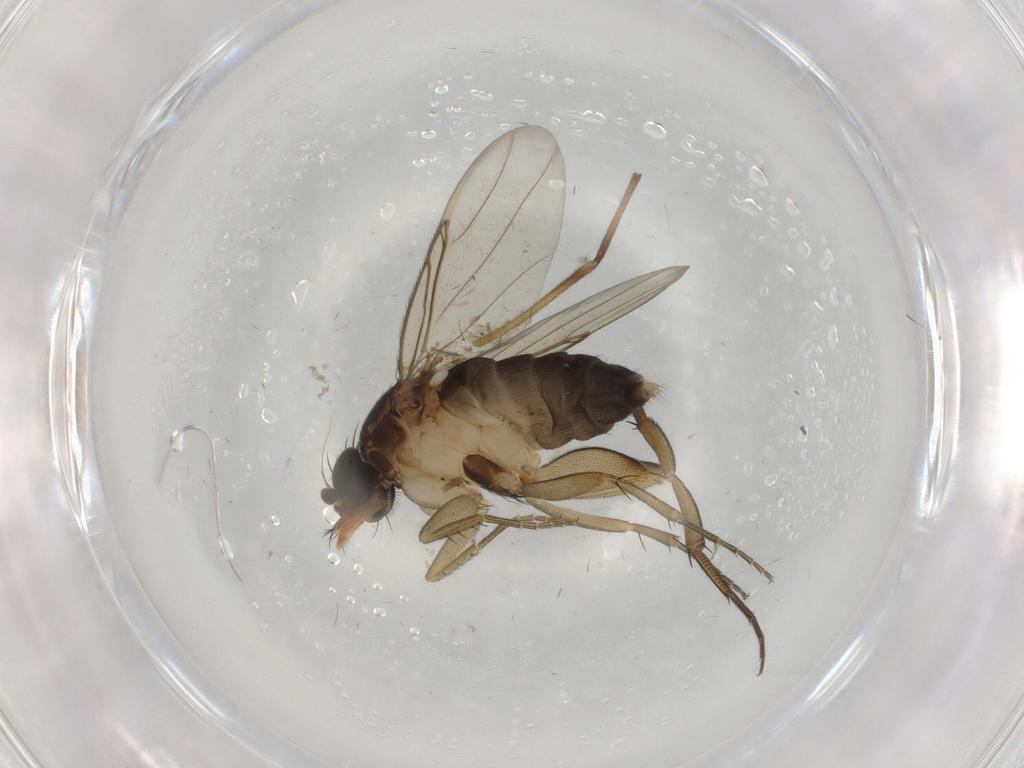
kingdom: Animalia
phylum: Arthropoda
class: Insecta
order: Diptera
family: Phoridae
